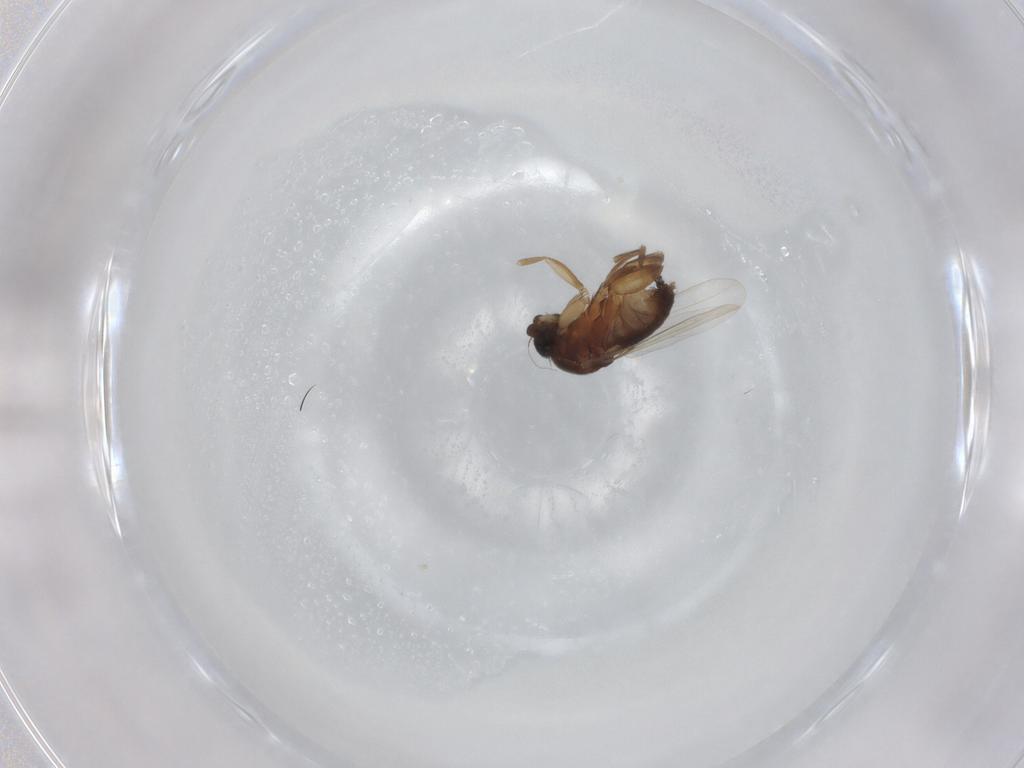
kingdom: Animalia
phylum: Arthropoda
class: Insecta
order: Diptera
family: Phoridae
